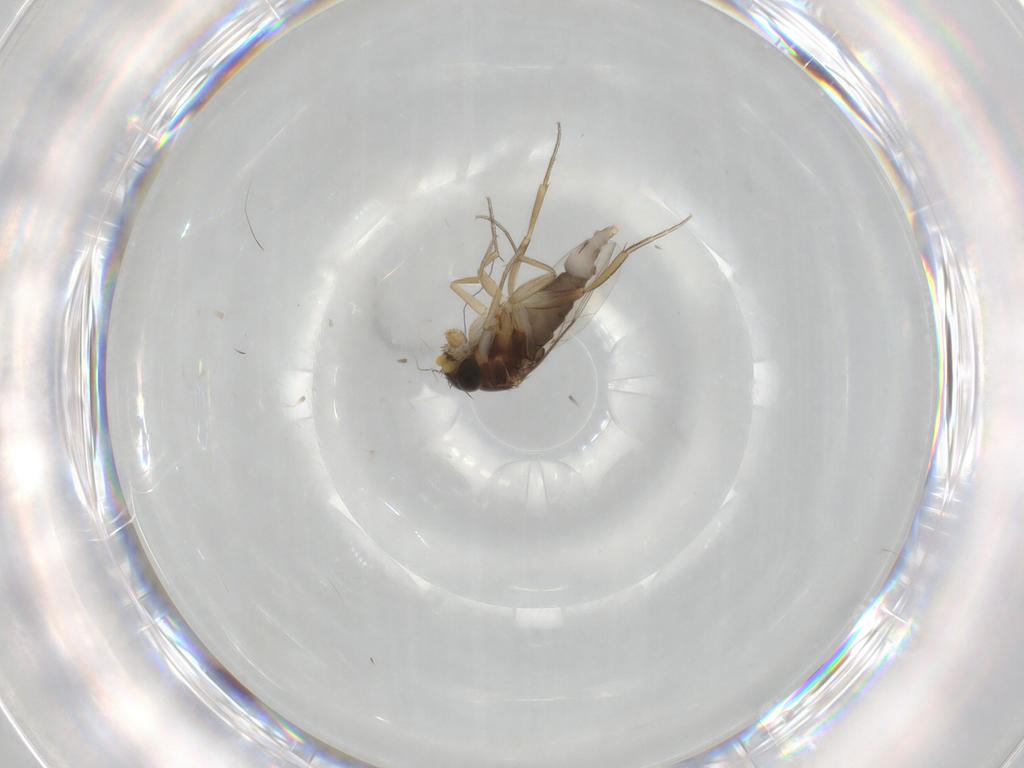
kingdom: Animalia
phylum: Arthropoda
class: Insecta
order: Diptera
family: Phoridae
